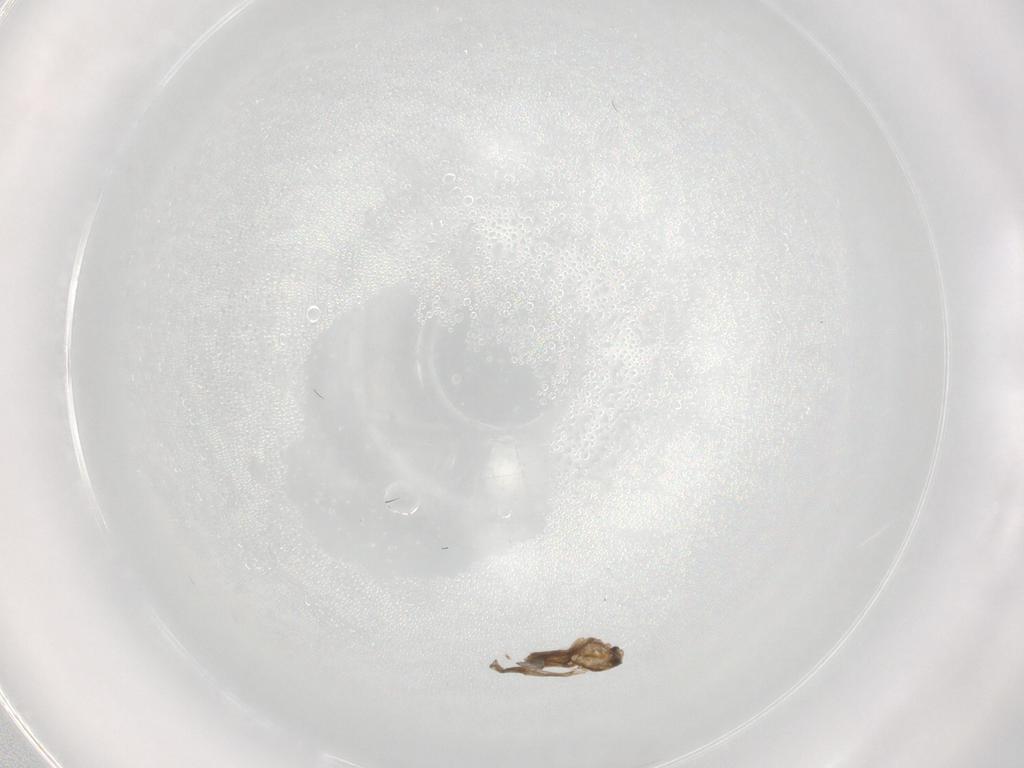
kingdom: Animalia
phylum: Arthropoda
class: Insecta
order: Diptera
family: Chironomidae
